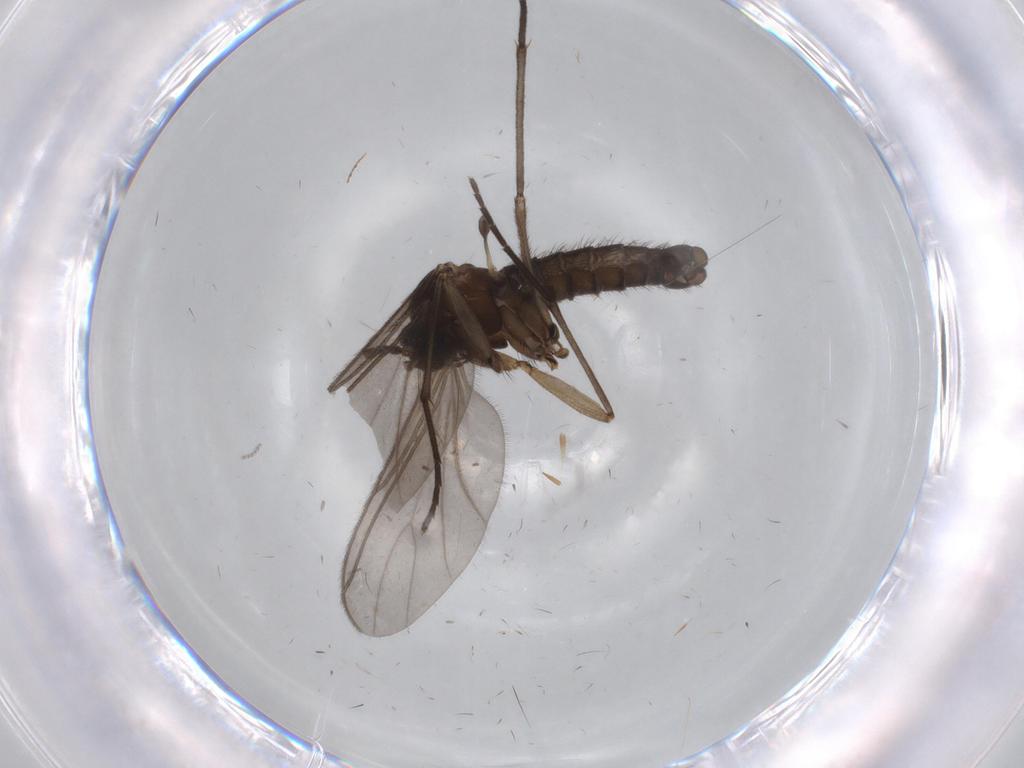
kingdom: Animalia
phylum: Arthropoda
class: Insecta
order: Diptera
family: Sciaridae
